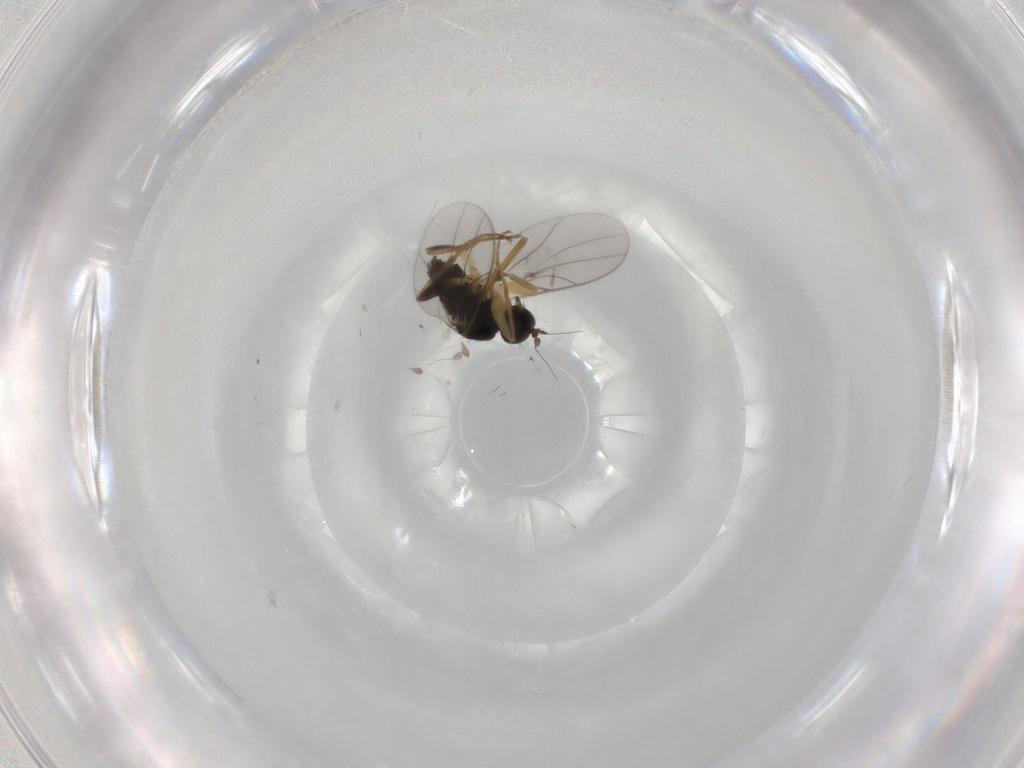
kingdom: Animalia
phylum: Arthropoda
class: Insecta
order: Diptera
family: Hybotidae
